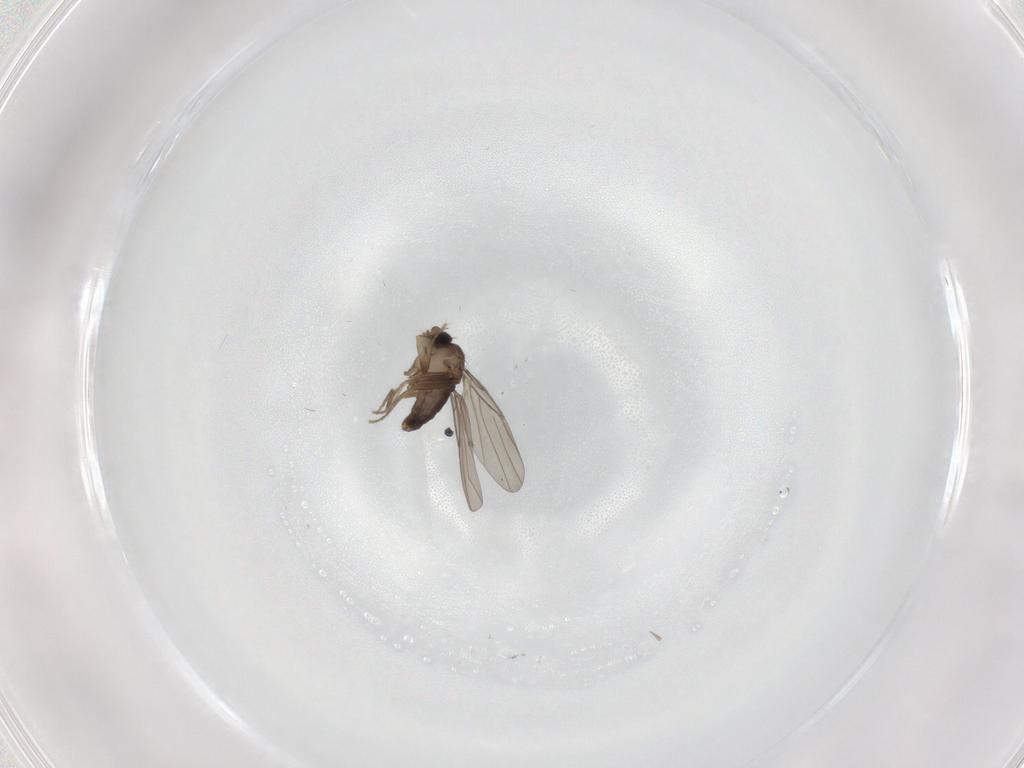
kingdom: Animalia
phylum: Arthropoda
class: Insecta
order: Diptera
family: Phoridae
